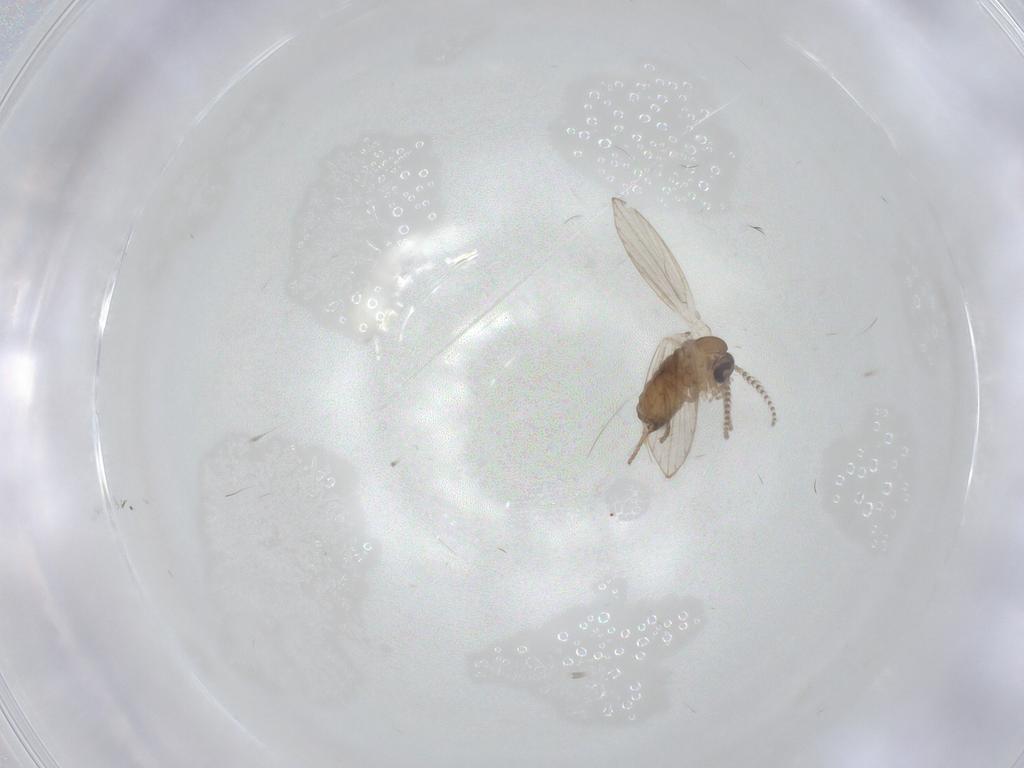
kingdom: Animalia
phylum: Arthropoda
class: Insecta
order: Diptera
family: Psychodidae
